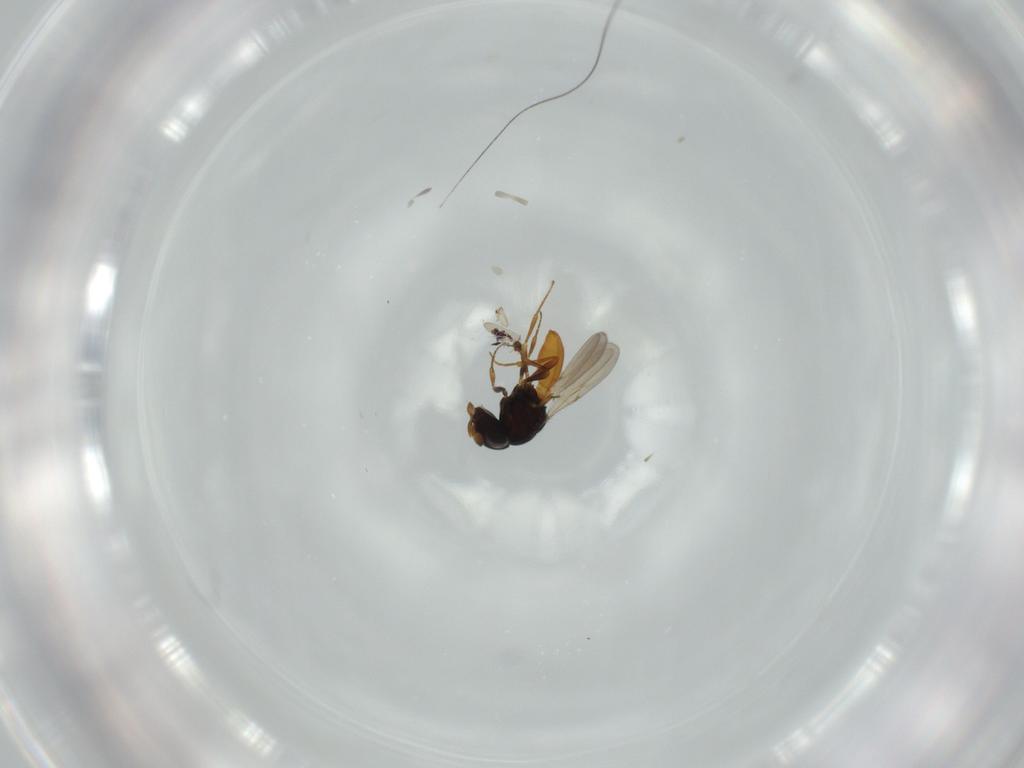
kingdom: Animalia
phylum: Arthropoda
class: Insecta
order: Hymenoptera
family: Scelionidae
